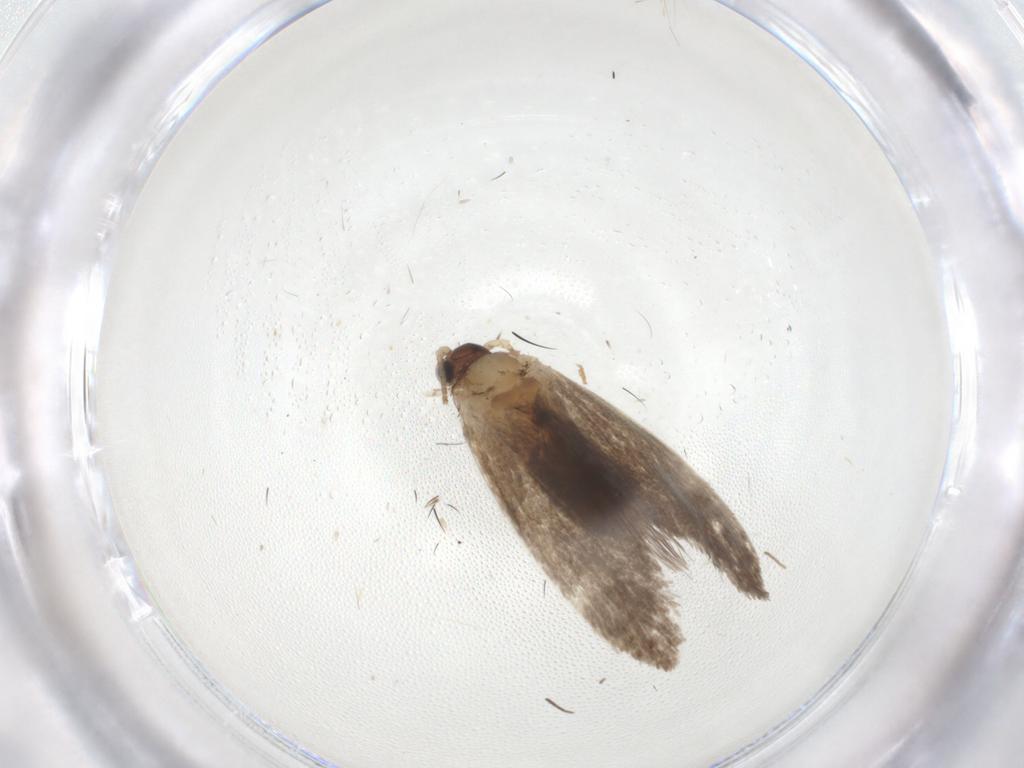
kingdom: Animalia
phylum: Arthropoda
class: Insecta
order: Lepidoptera
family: Dryadaulidae
